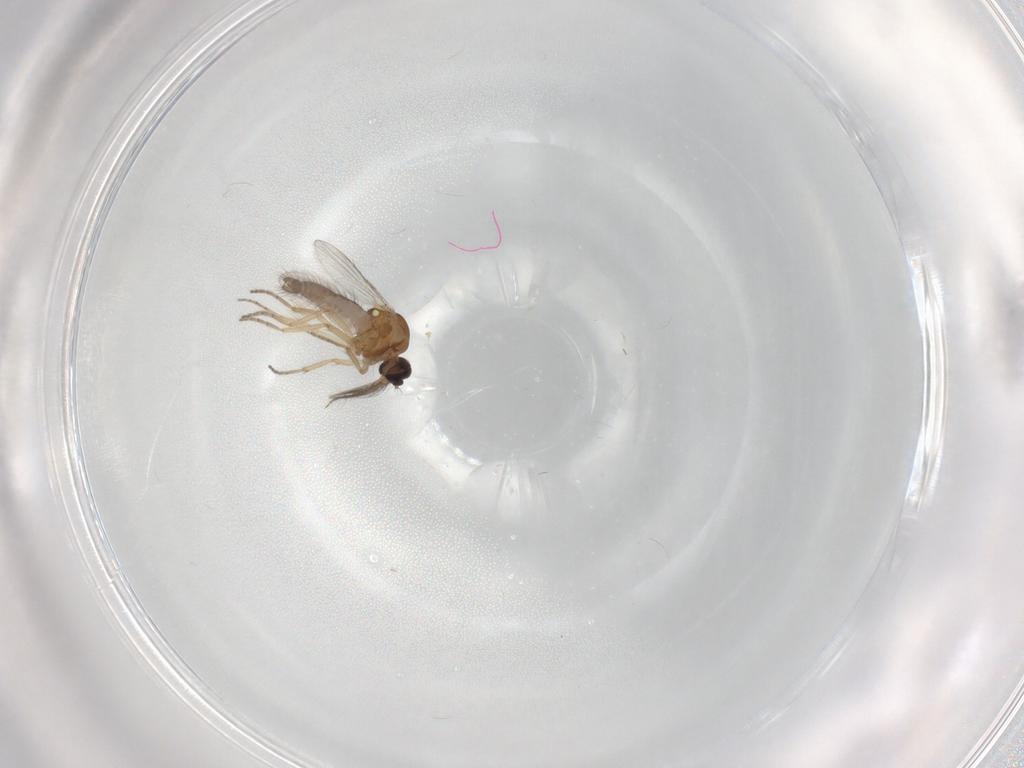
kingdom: Animalia
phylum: Arthropoda
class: Insecta
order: Diptera
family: Ceratopogonidae
